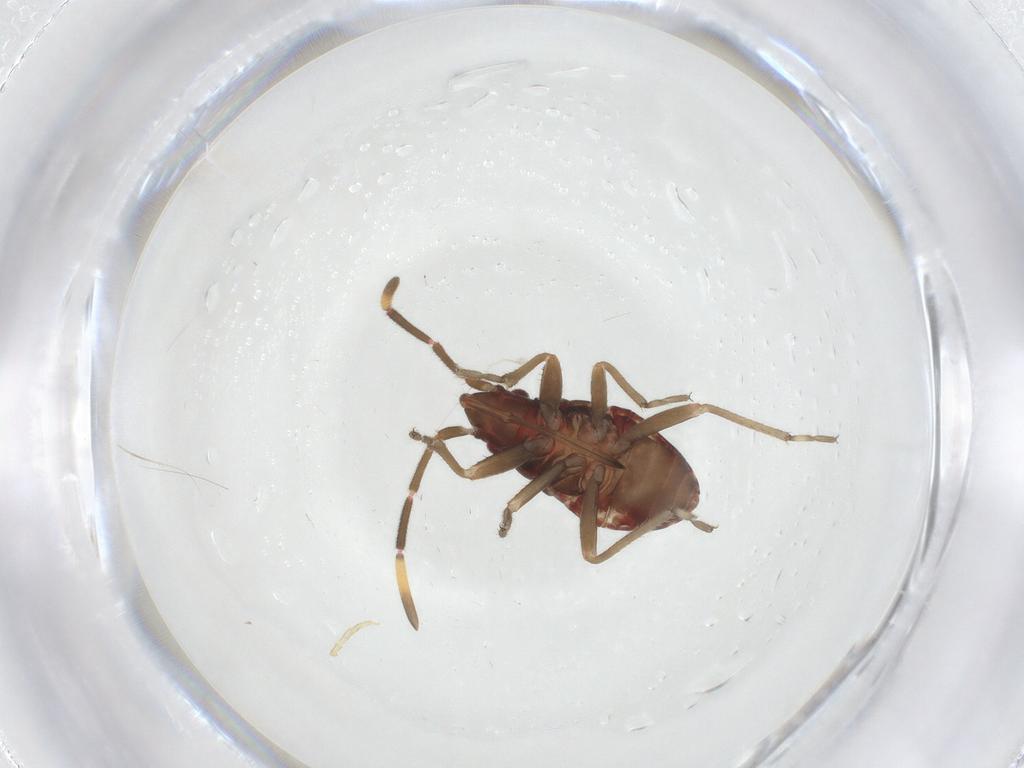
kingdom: Animalia
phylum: Arthropoda
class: Insecta
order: Hemiptera
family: Rhyparochromidae
